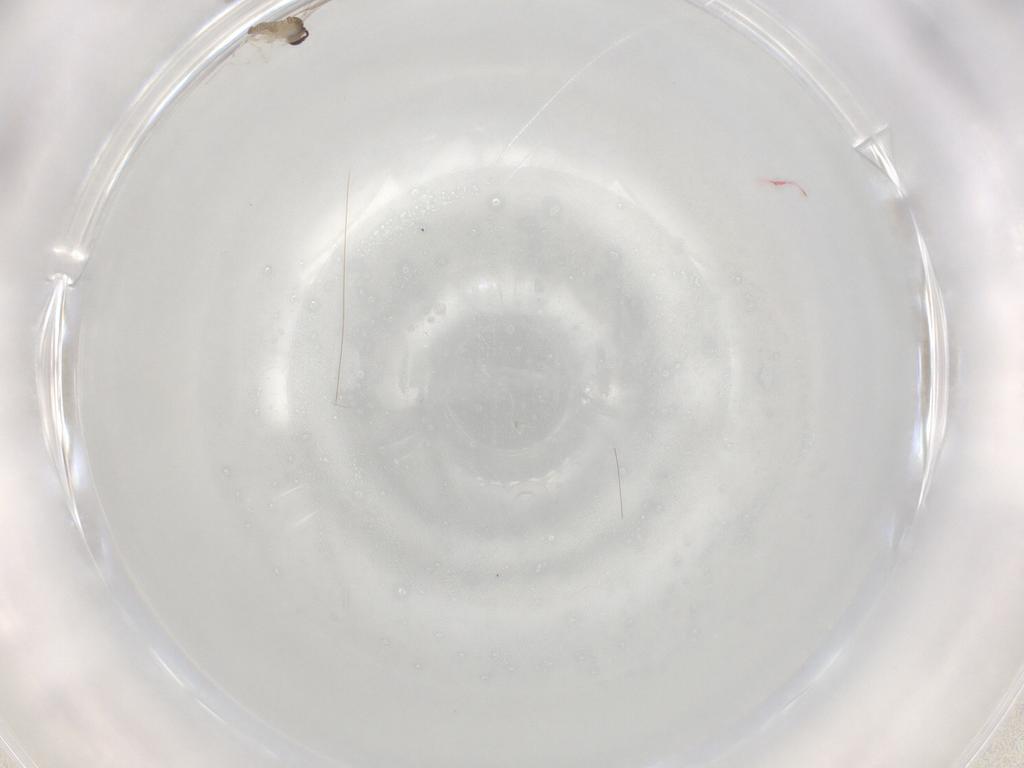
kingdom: Animalia
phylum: Arthropoda
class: Insecta
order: Diptera
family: Cecidomyiidae
